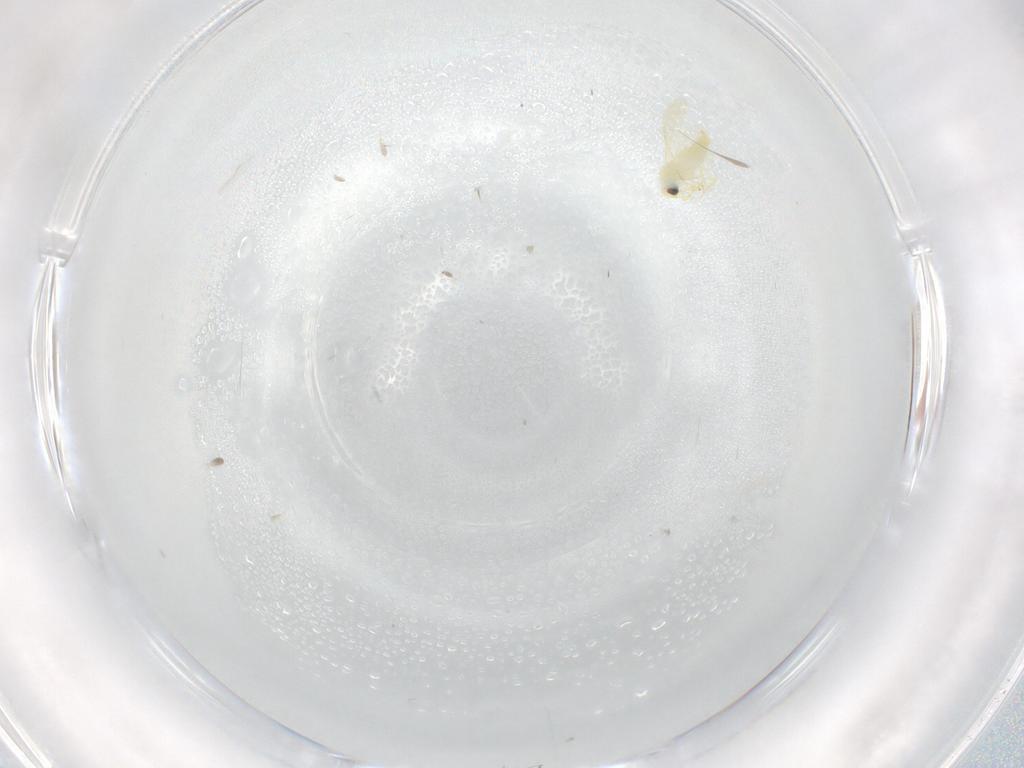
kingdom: Animalia
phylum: Arthropoda
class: Insecta
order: Hemiptera
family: Aleyrodidae
